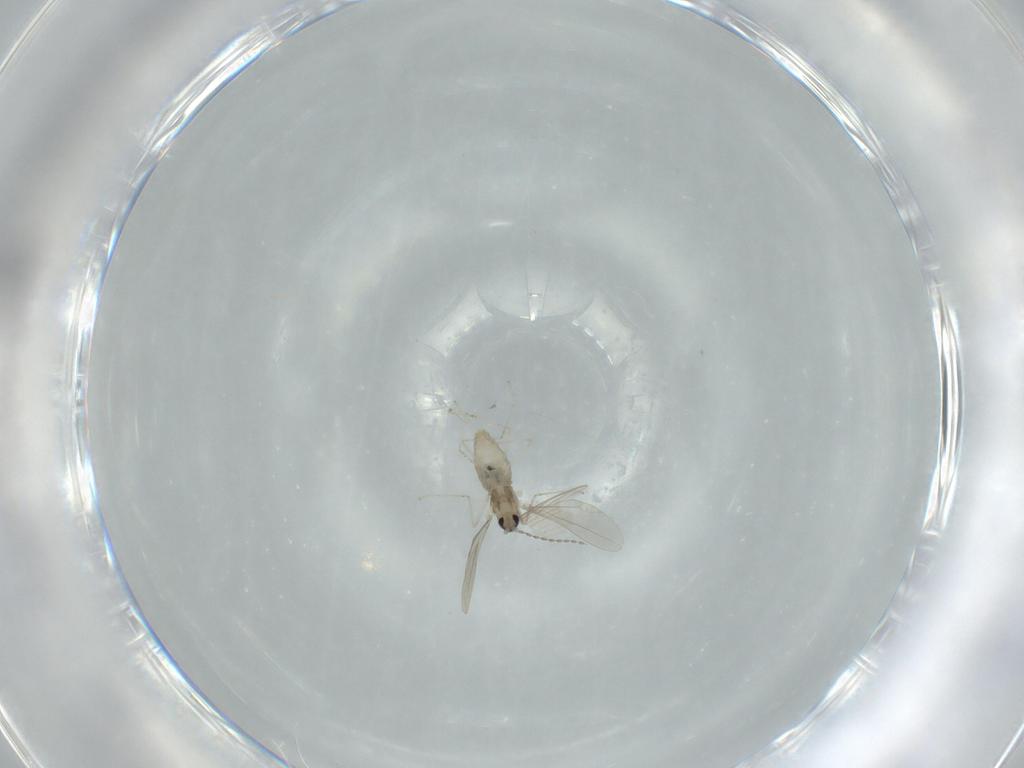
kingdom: Animalia
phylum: Arthropoda
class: Insecta
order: Diptera
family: Cecidomyiidae
